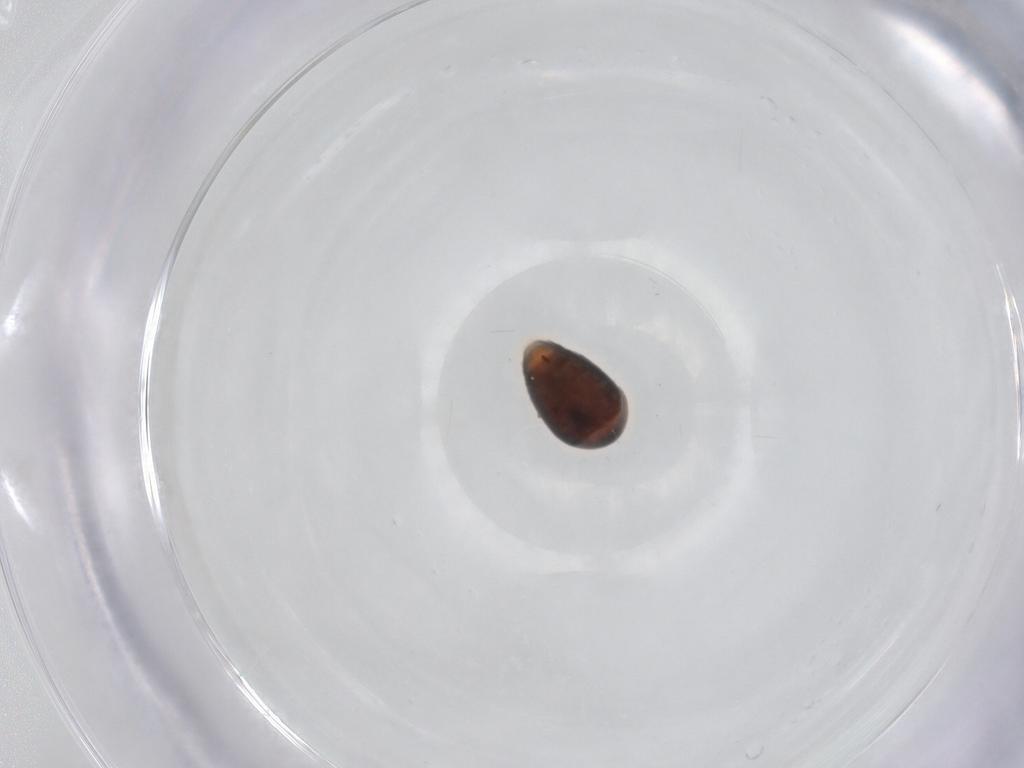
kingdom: Animalia
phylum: Arthropoda
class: Insecta
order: Coleoptera
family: Corylophidae
